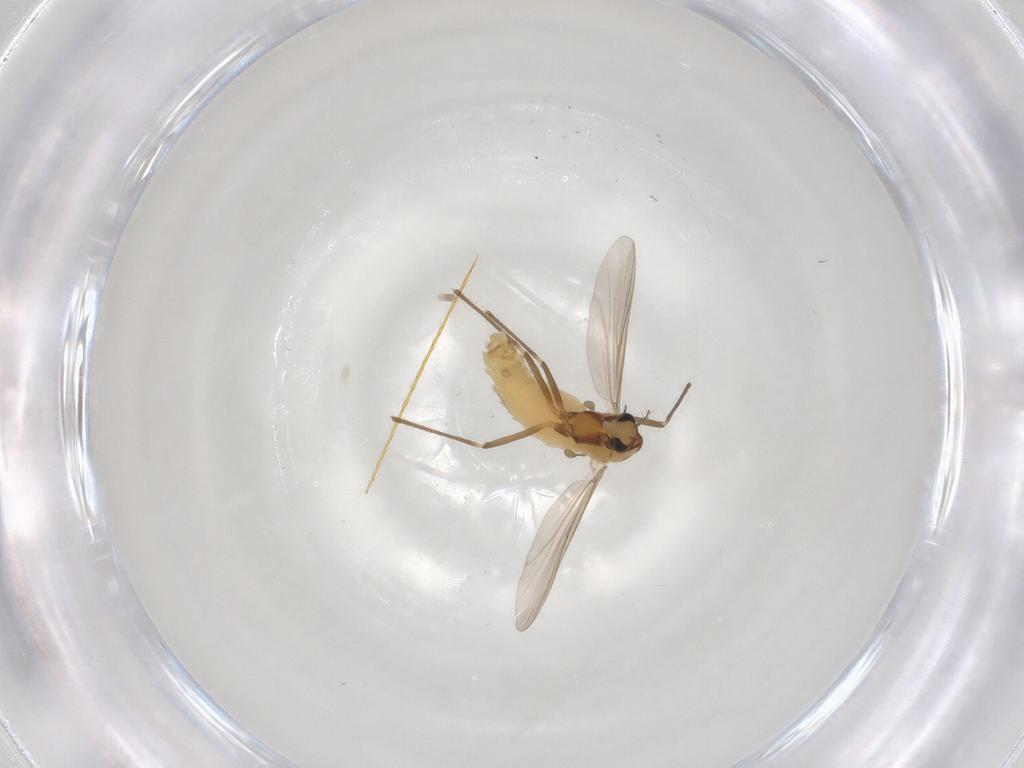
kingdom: Animalia
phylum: Arthropoda
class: Insecta
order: Diptera
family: Chironomidae
